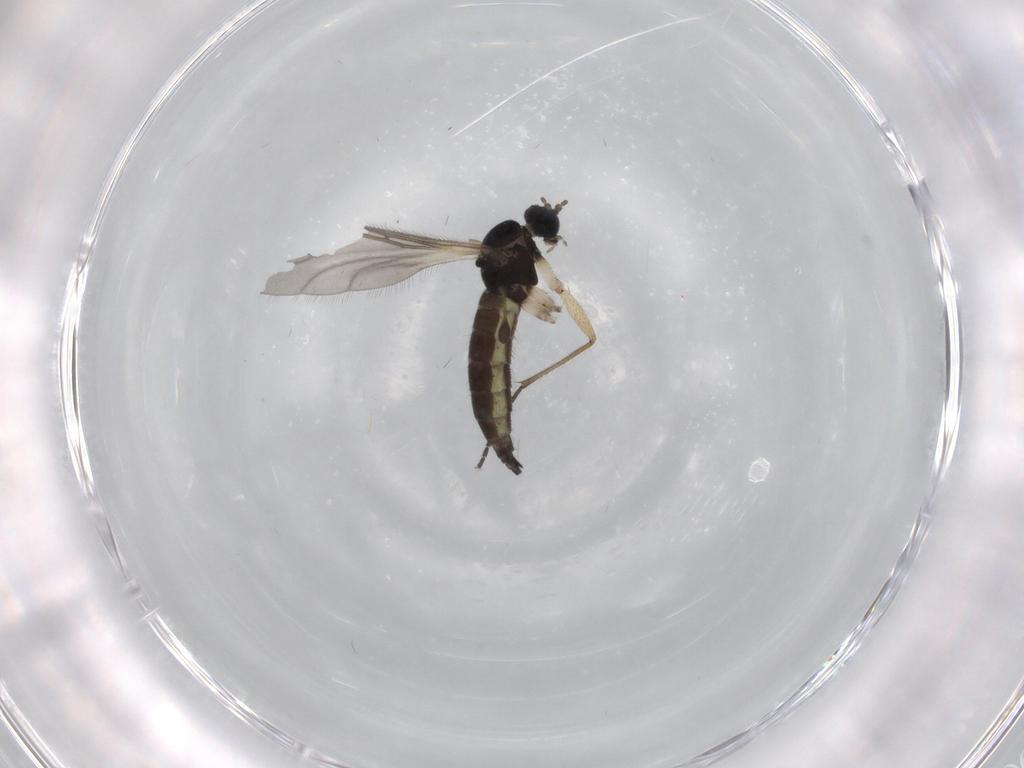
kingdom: Animalia
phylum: Arthropoda
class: Insecta
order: Diptera
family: Sciaridae
